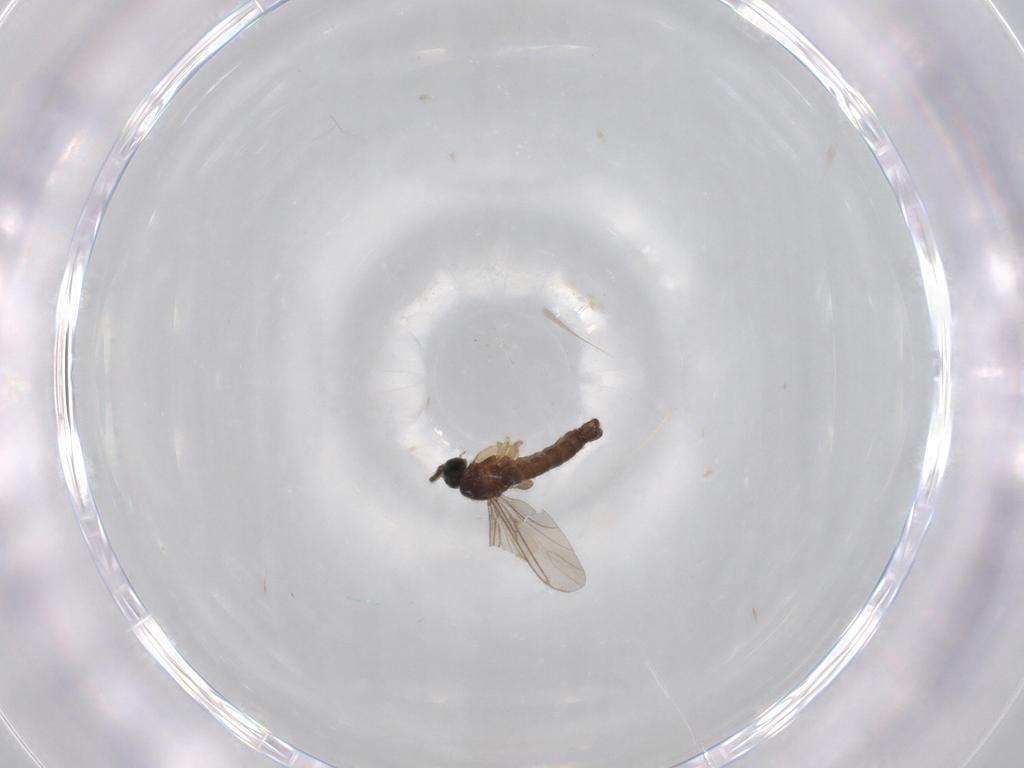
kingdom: Animalia
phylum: Arthropoda
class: Insecta
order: Diptera
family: Sciaridae
